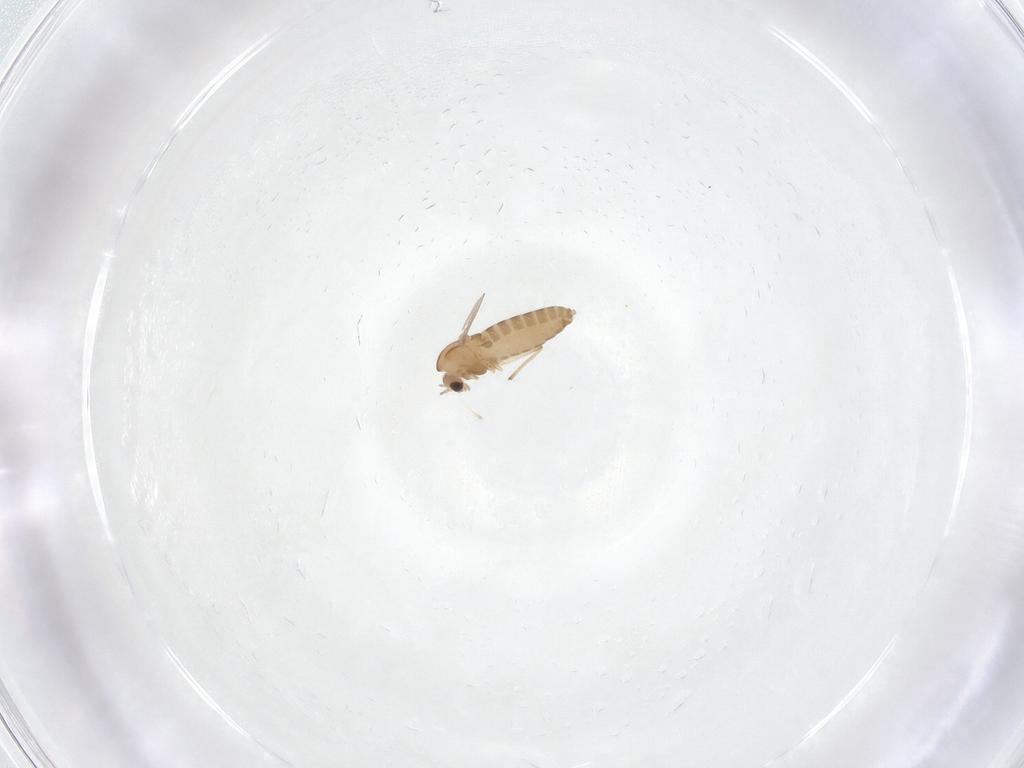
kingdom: Animalia
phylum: Arthropoda
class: Insecta
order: Diptera
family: Chironomidae
